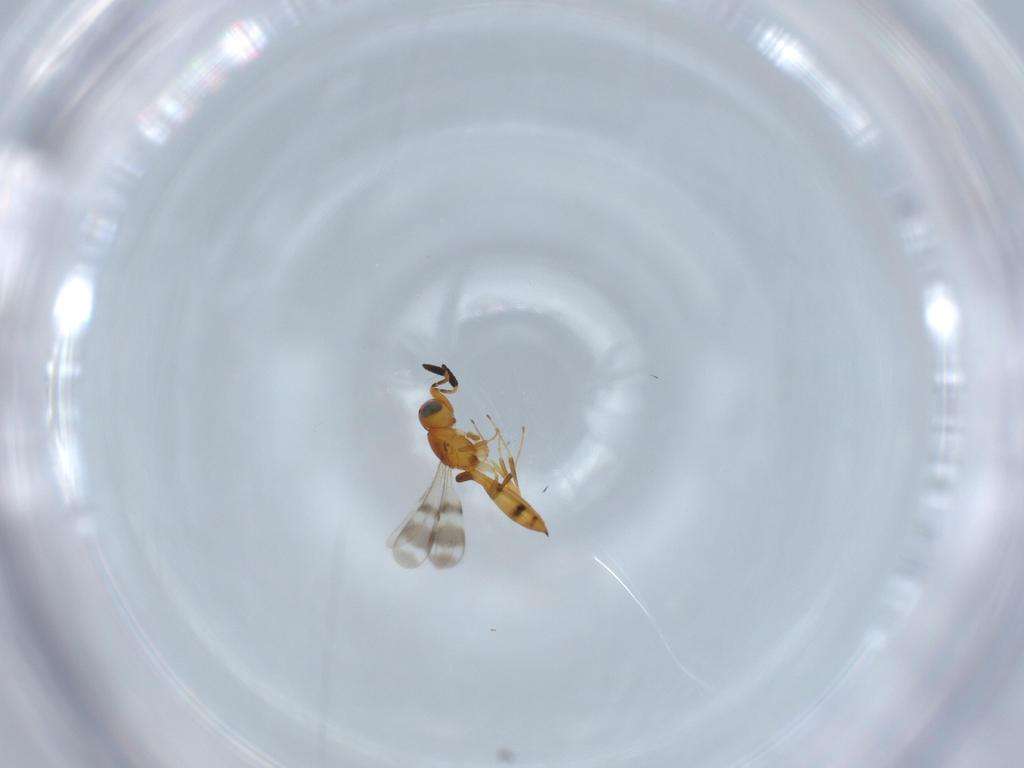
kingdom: Animalia
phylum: Arthropoda
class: Insecta
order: Hymenoptera
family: Scelionidae
